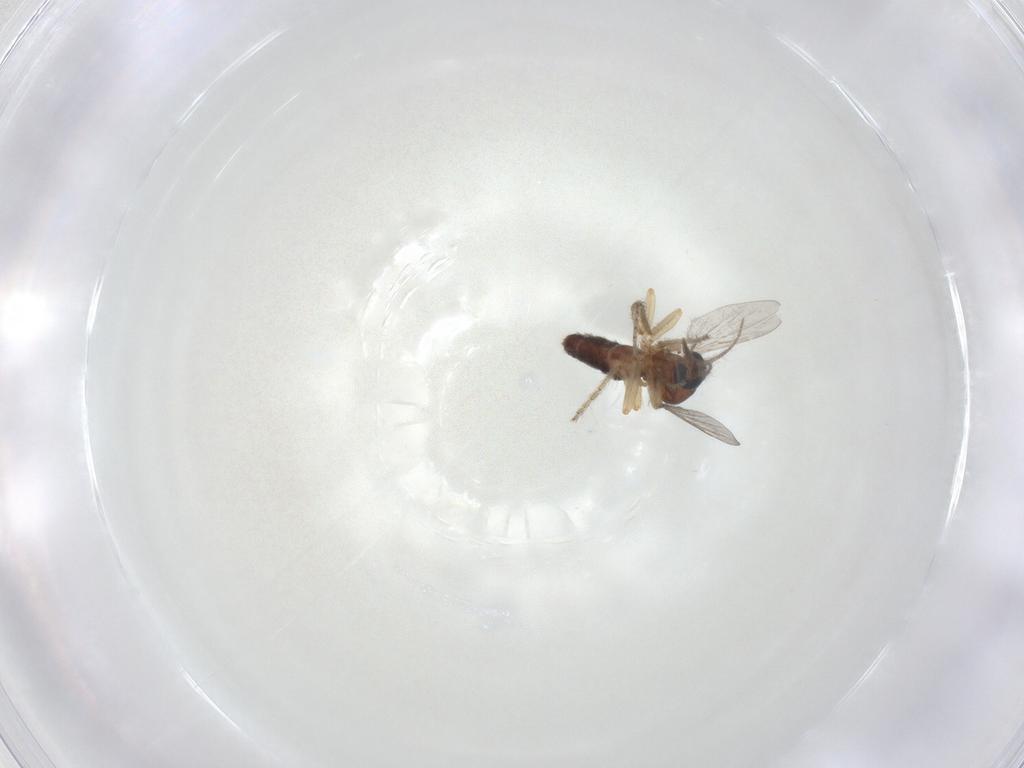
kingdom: Animalia
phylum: Arthropoda
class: Insecta
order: Diptera
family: Ceratopogonidae
